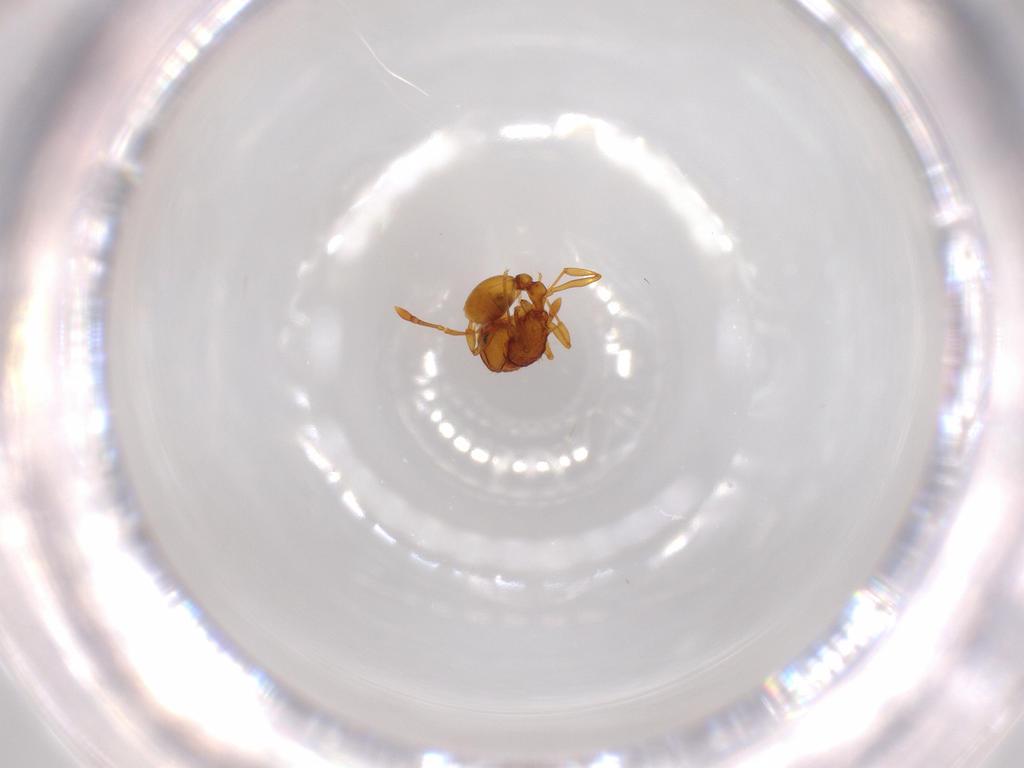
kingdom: Animalia
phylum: Arthropoda
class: Insecta
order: Hymenoptera
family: Formicidae
